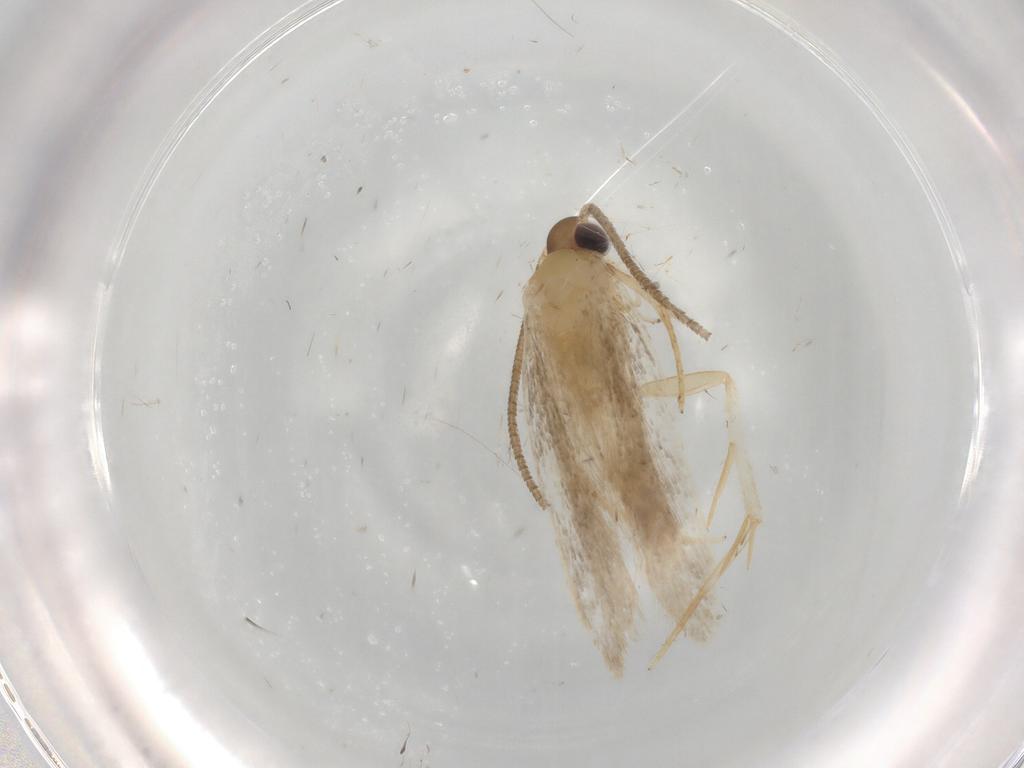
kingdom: Animalia
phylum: Arthropoda
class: Insecta
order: Lepidoptera
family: Autostichidae
